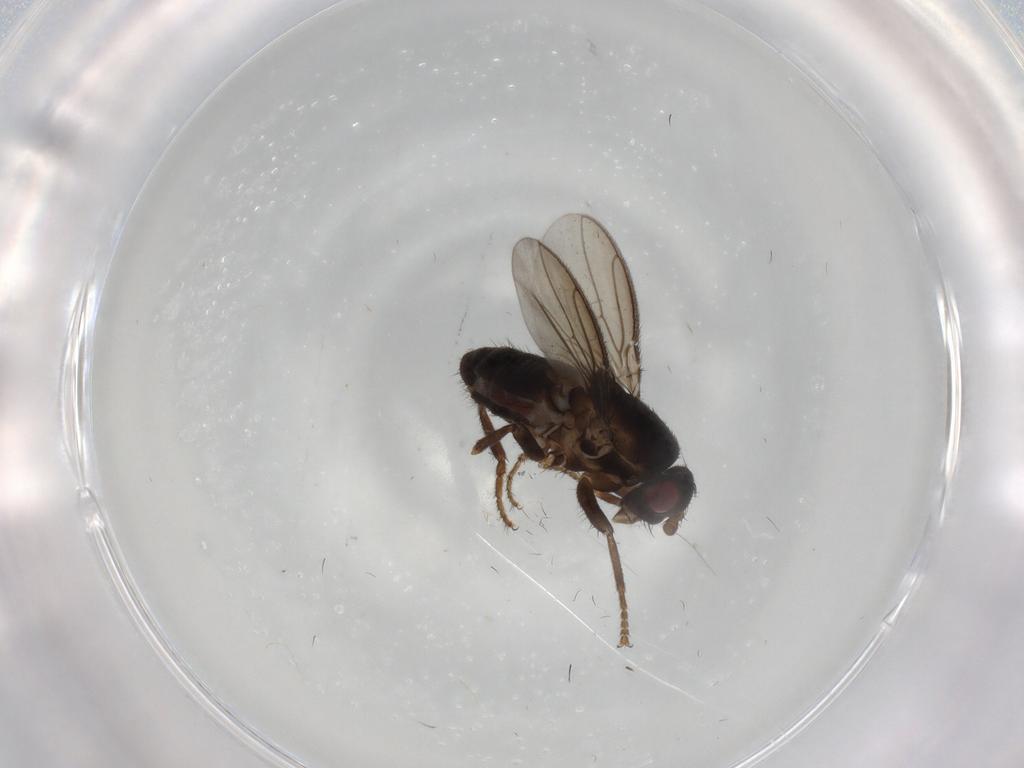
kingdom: Animalia
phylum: Arthropoda
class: Insecta
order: Diptera
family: Sphaeroceridae
